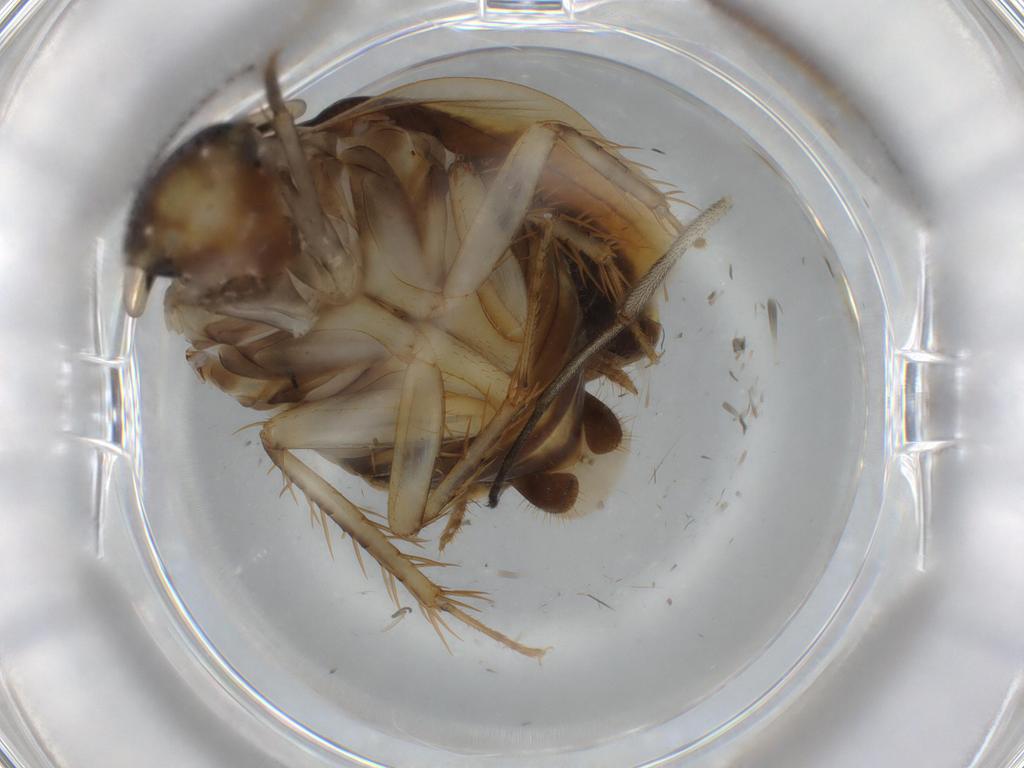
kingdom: Animalia
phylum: Arthropoda
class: Insecta
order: Blattodea
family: Ectobiidae
